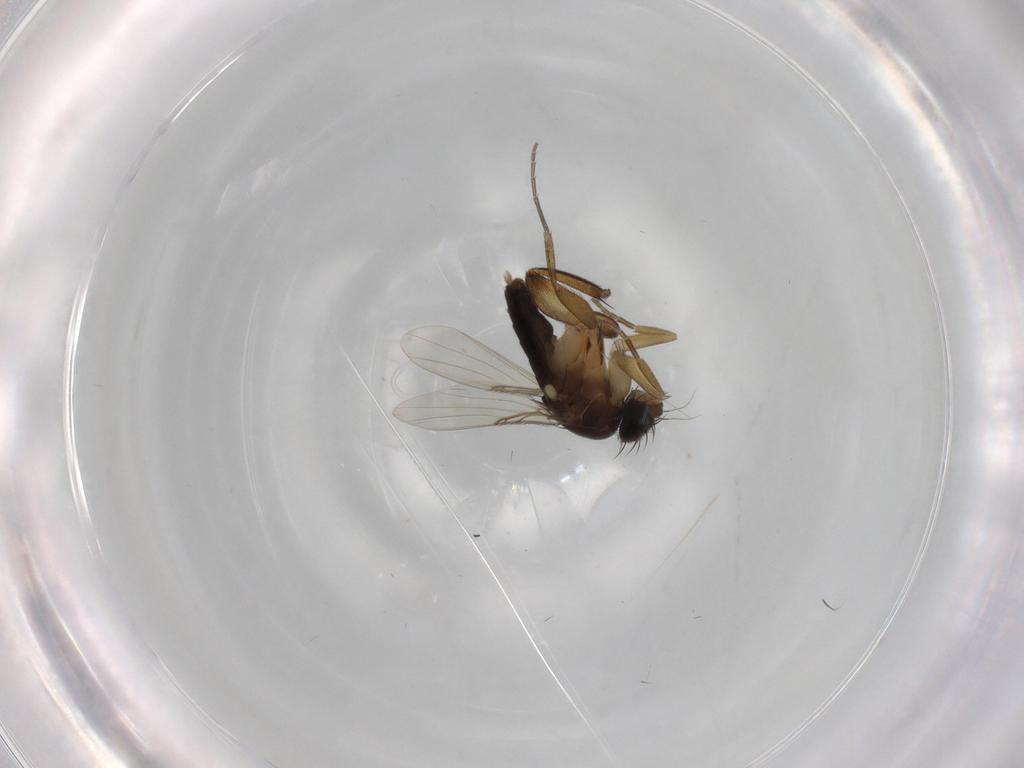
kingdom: Animalia
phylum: Arthropoda
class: Insecta
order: Diptera
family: Phoridae
